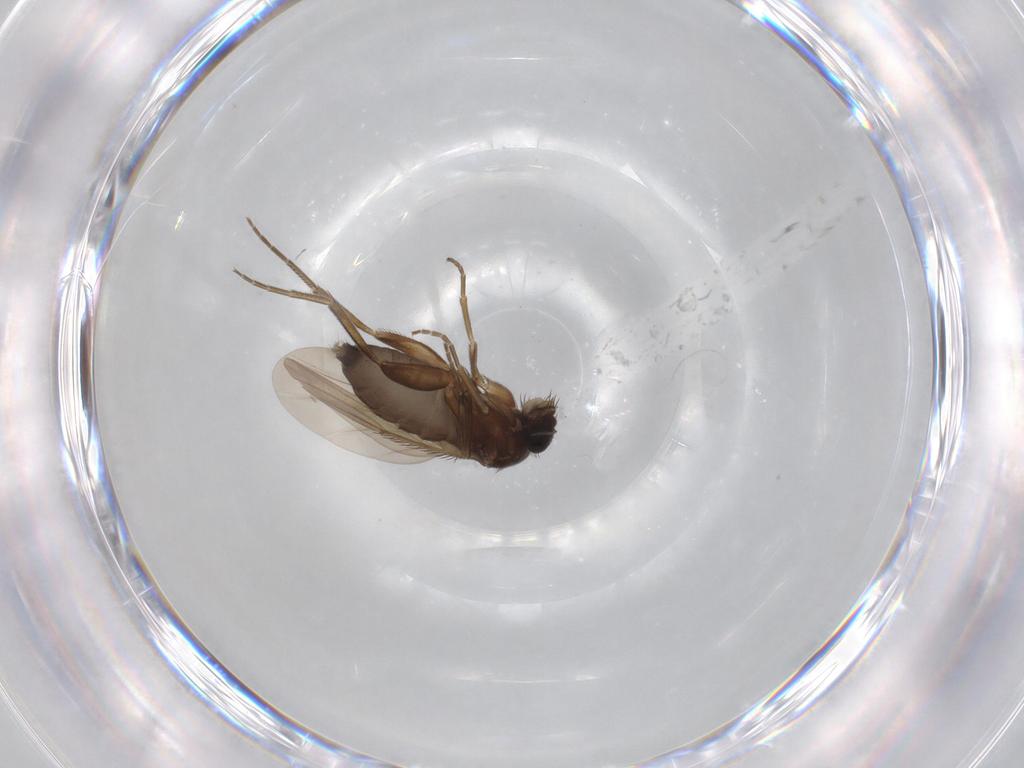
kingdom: Animalia
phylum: Arthropoda
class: Insecta
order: Diptera
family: Phoridae
